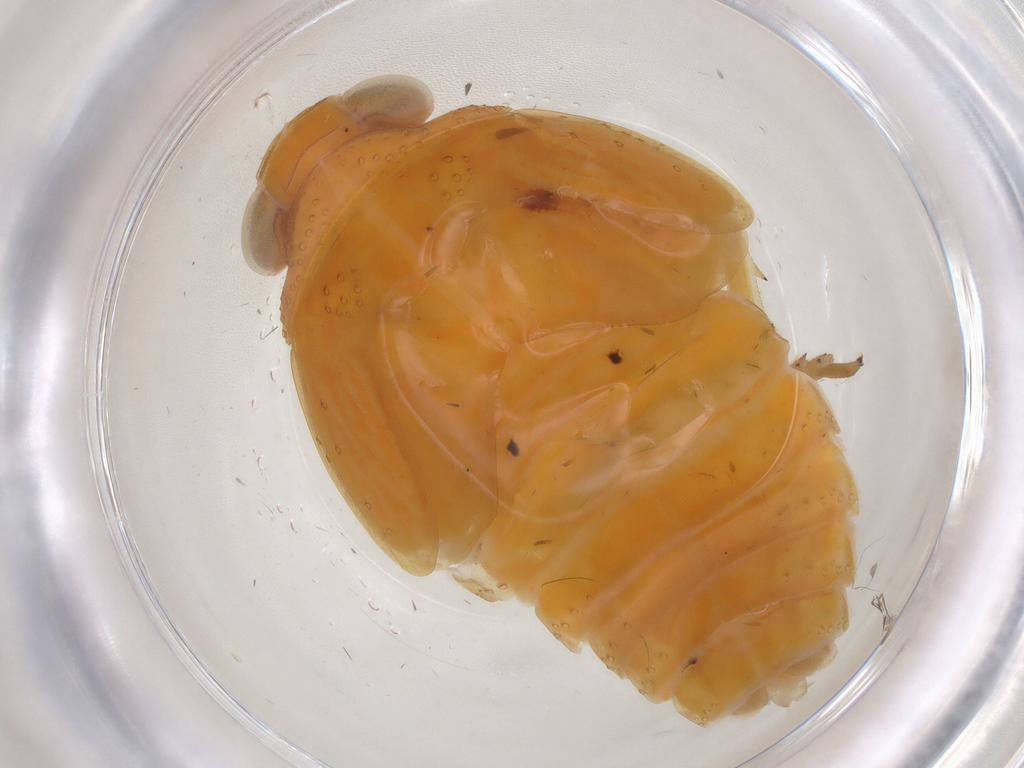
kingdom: Animalia
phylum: Arthropoda
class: Insecta
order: Hemiptera
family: Issidae
